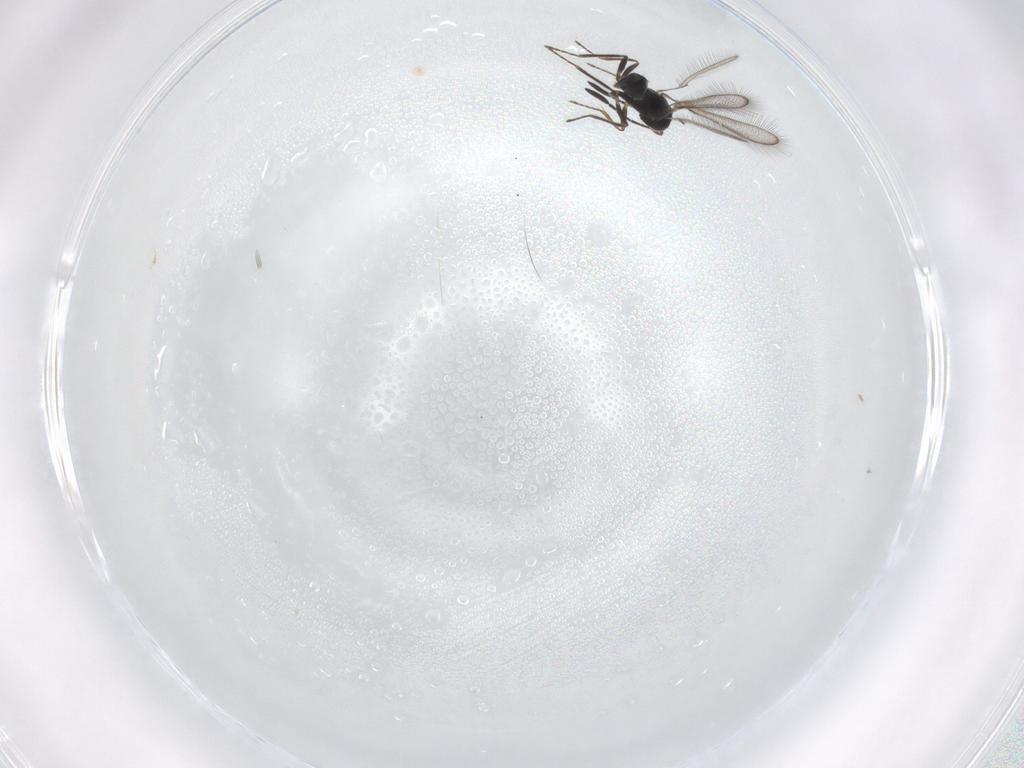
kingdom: Animalia
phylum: Arthropoda
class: Insecta
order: Hymenoptera
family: Mymaridae
